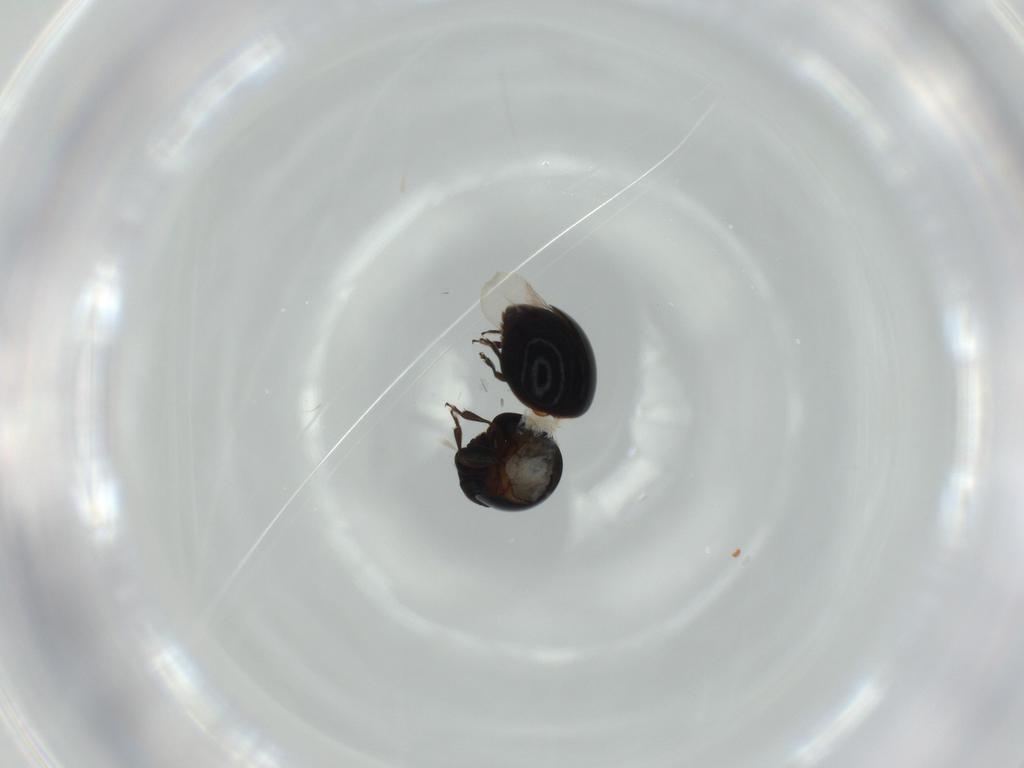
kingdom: Animalia
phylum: Arthropoda
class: Insecta
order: Coleoptera
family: Cybocephalidae
